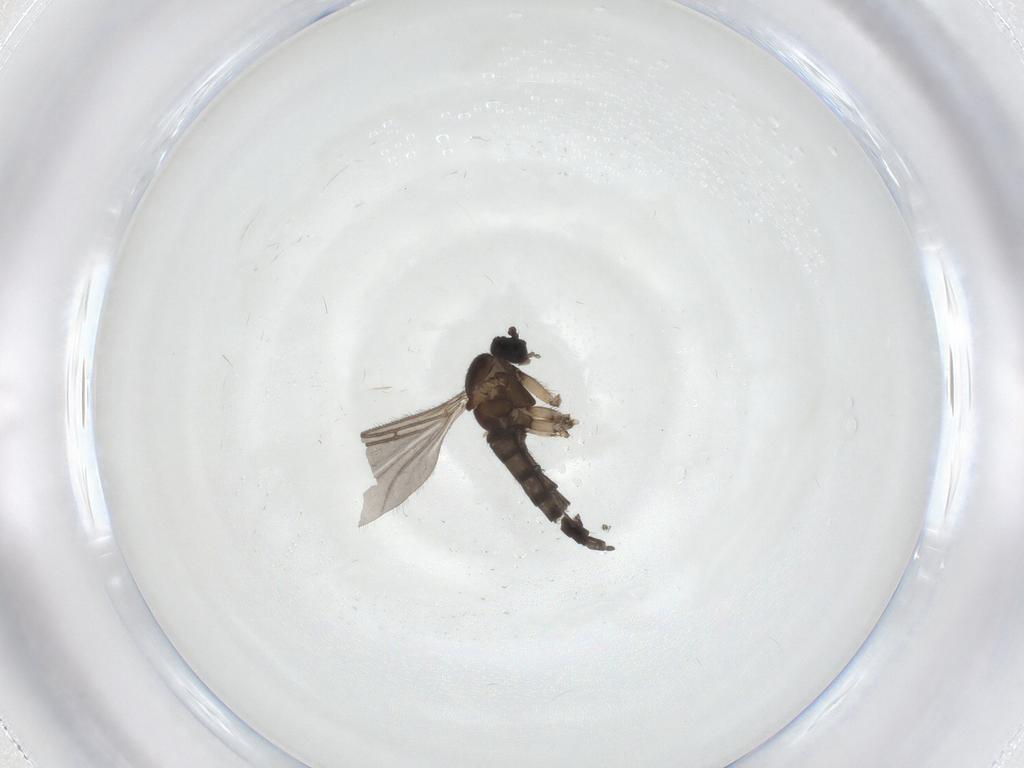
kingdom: Animalia
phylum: Arthropoda
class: Insecta
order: Diptera
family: Sciaridae
